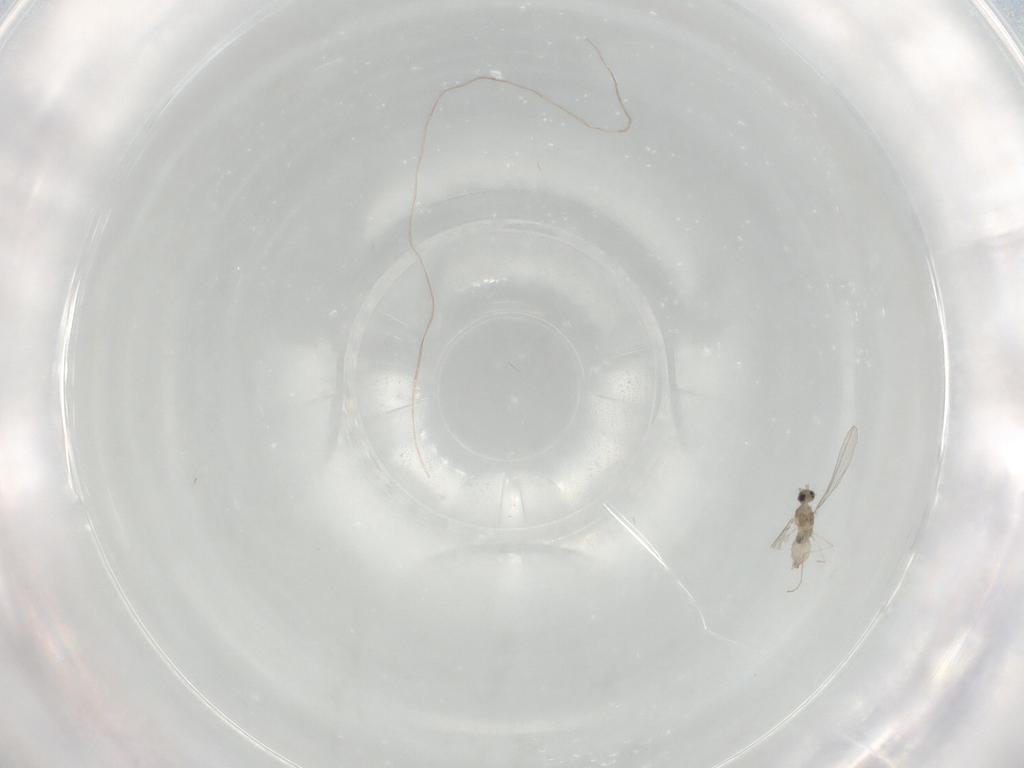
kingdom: Animalia
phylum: Arthropoda
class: Insecta
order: Diptera
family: Cecidomyiidae
